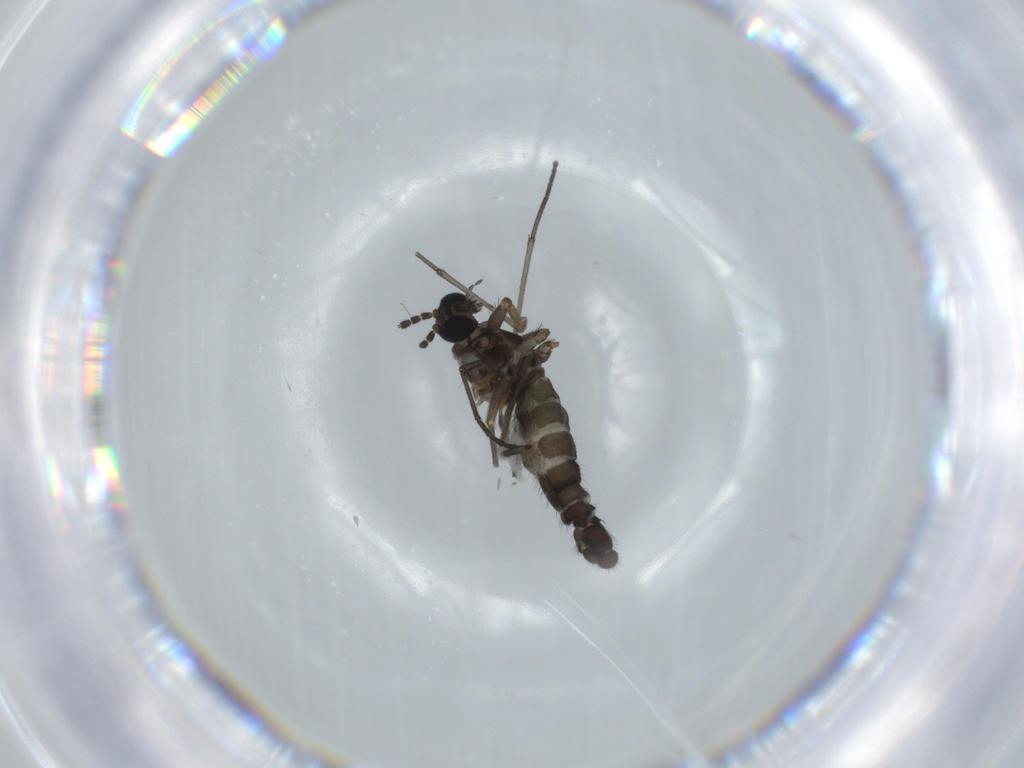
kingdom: Animalia
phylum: Arthropoda
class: Insecta
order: Diptera
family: Sciaridae
